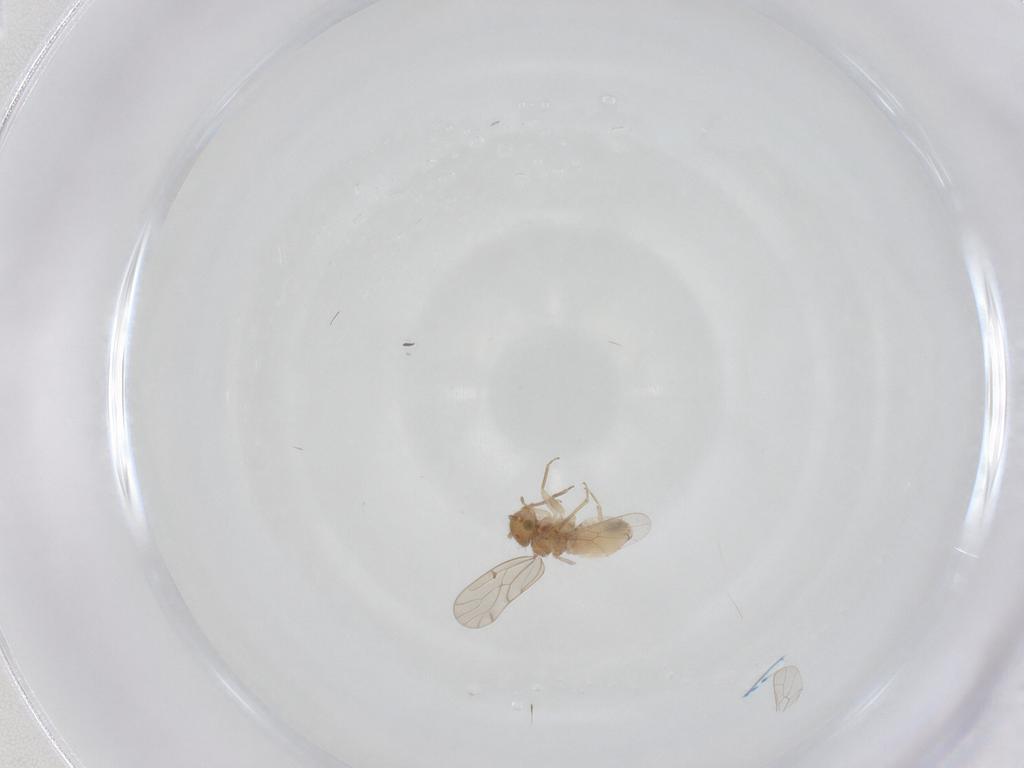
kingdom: Animalia
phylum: Arthropoda
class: Insecta
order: Psocodea
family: Ectopsocidae
